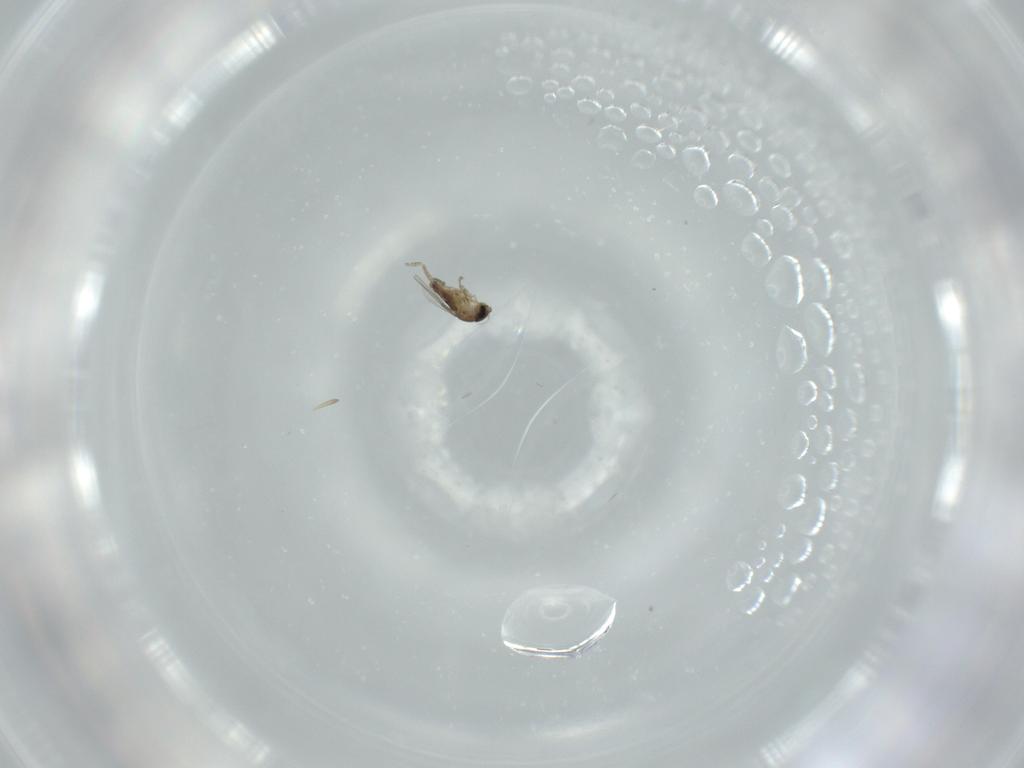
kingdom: Animalia
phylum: Arthropoda
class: Insecta
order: Diptera
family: Phoridae
